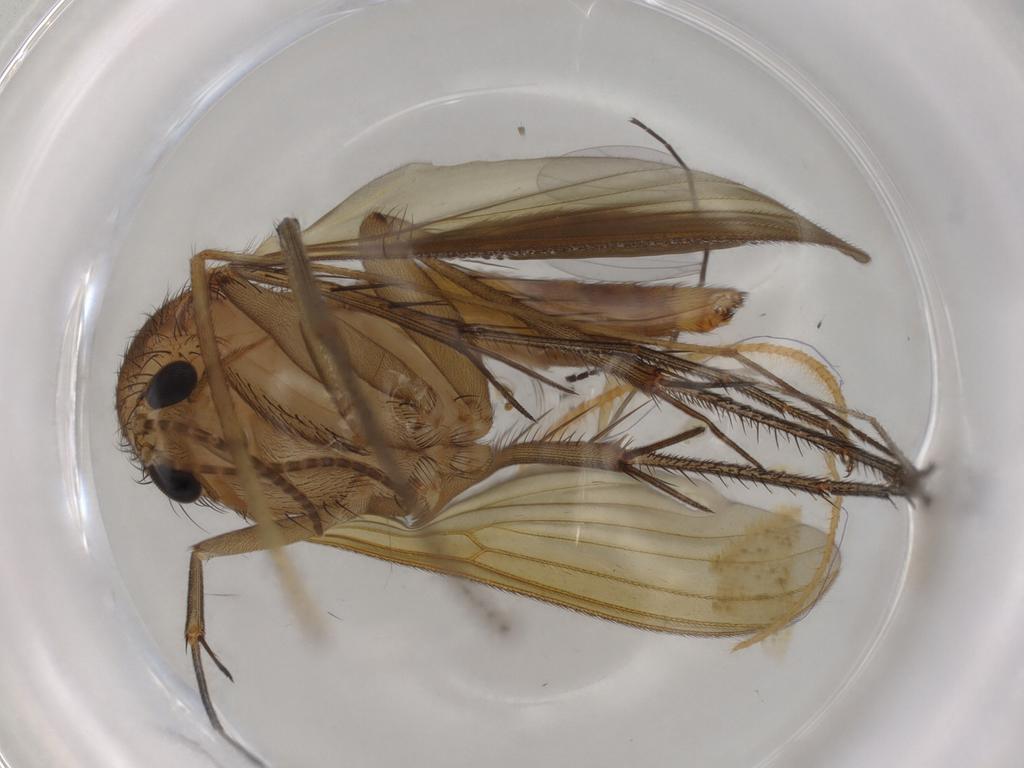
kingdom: Animalia
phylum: Arthropoda
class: Insecta
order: Diptera
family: Mycetophilidae
